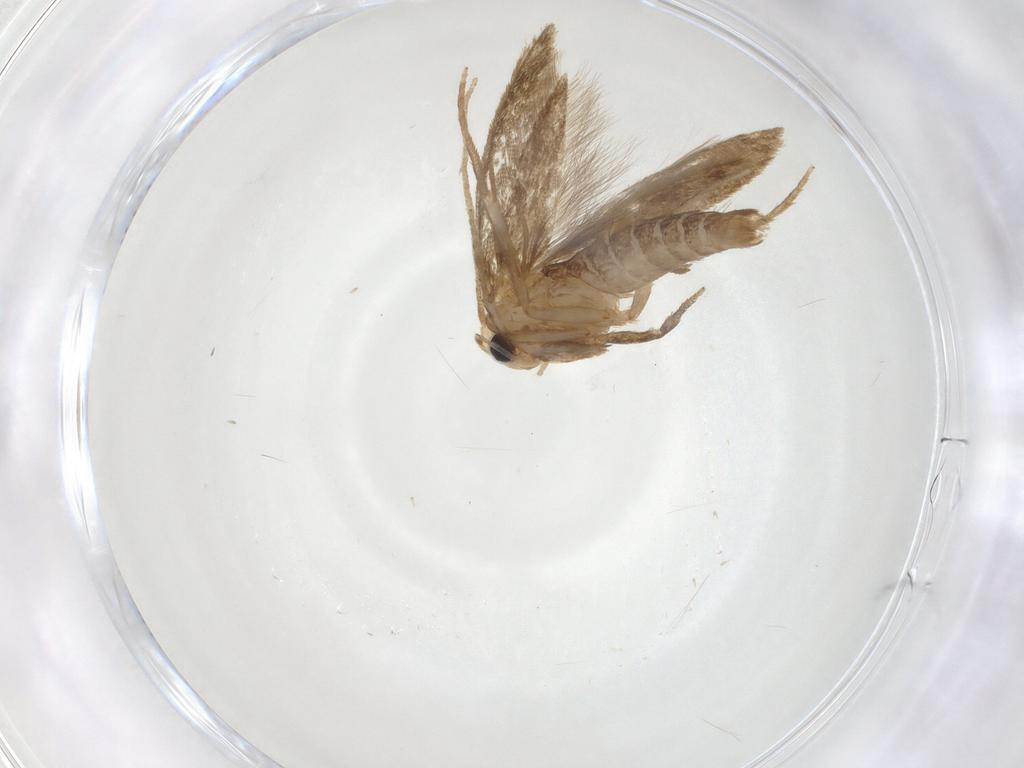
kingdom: Animalia
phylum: Arthropoda
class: Insecta
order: Lepidoptera
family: Tineidae
